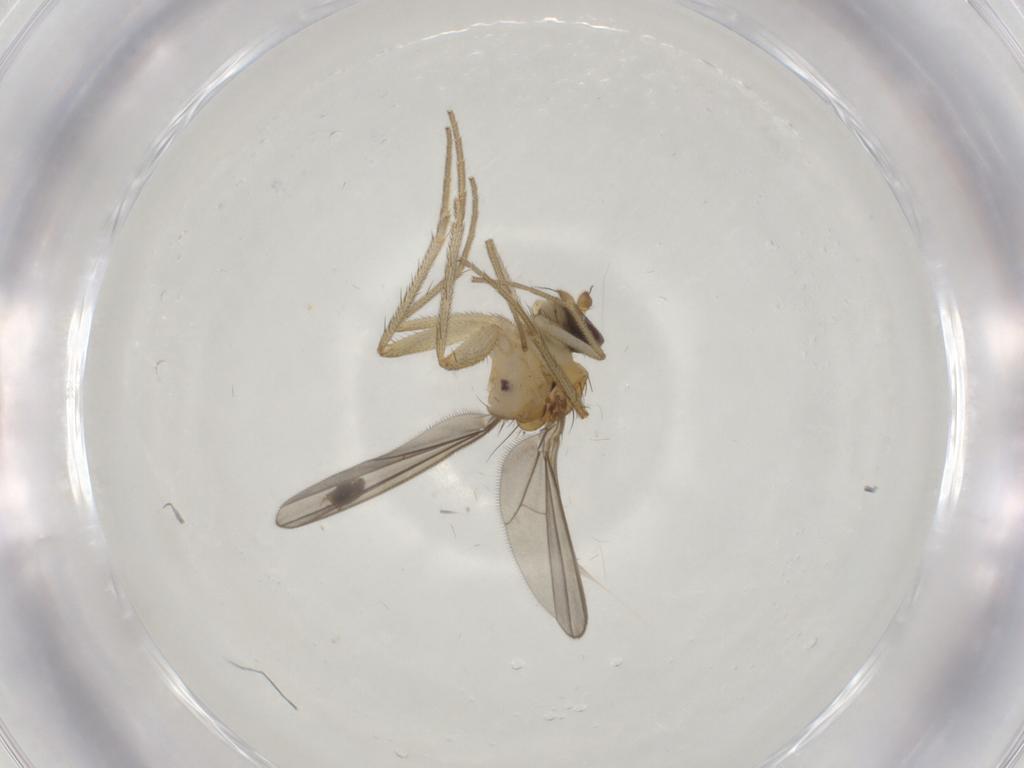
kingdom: Animalia
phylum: Arthropoda
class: Insecta
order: Diptera
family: Dolichopodidae
